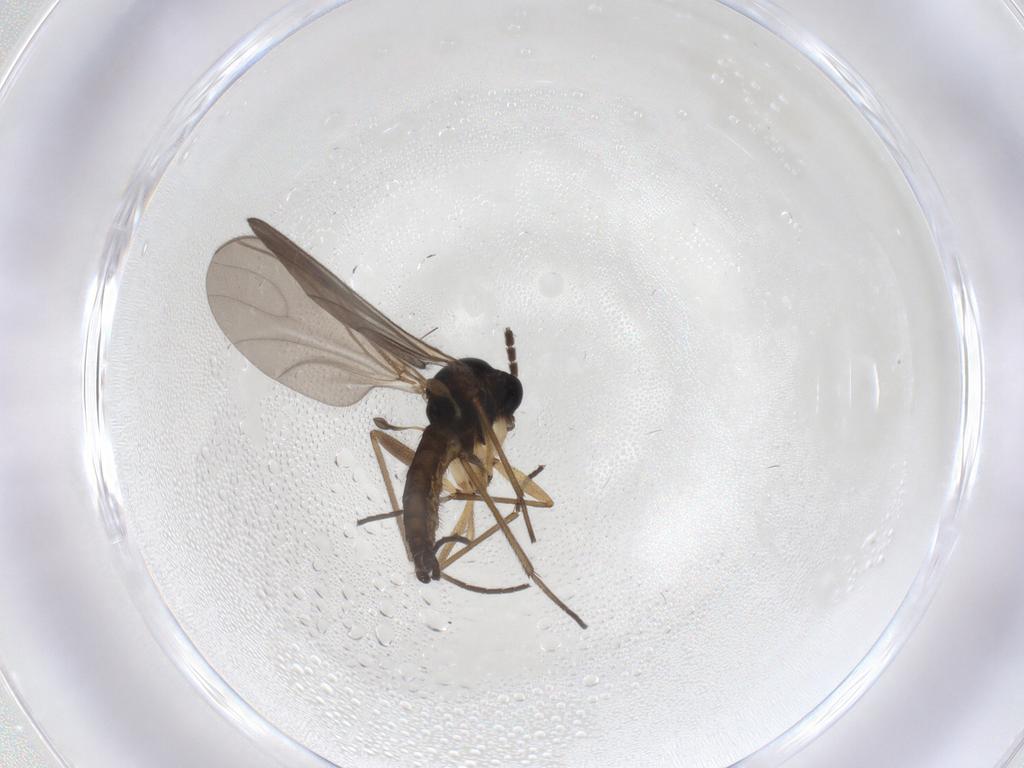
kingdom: Animalia
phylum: Arthropoda
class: Insecta
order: Diptera
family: Sciaridae
